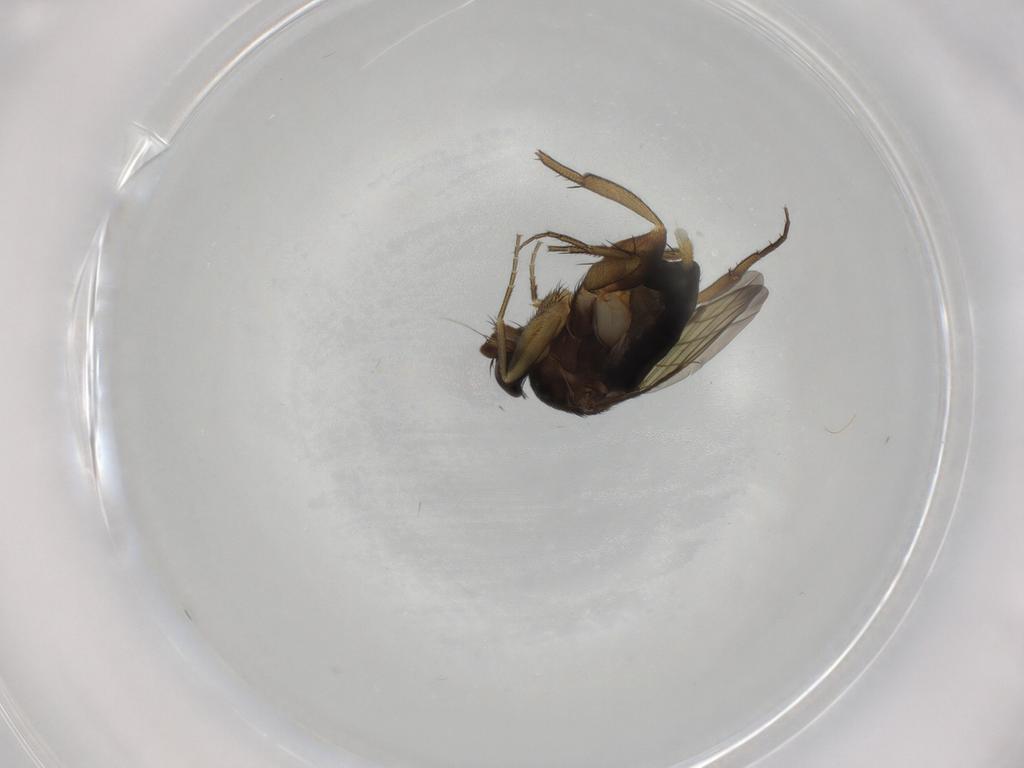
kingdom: Animalia
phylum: Arthropoda
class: Insecta
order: Diptera
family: Phoridae
